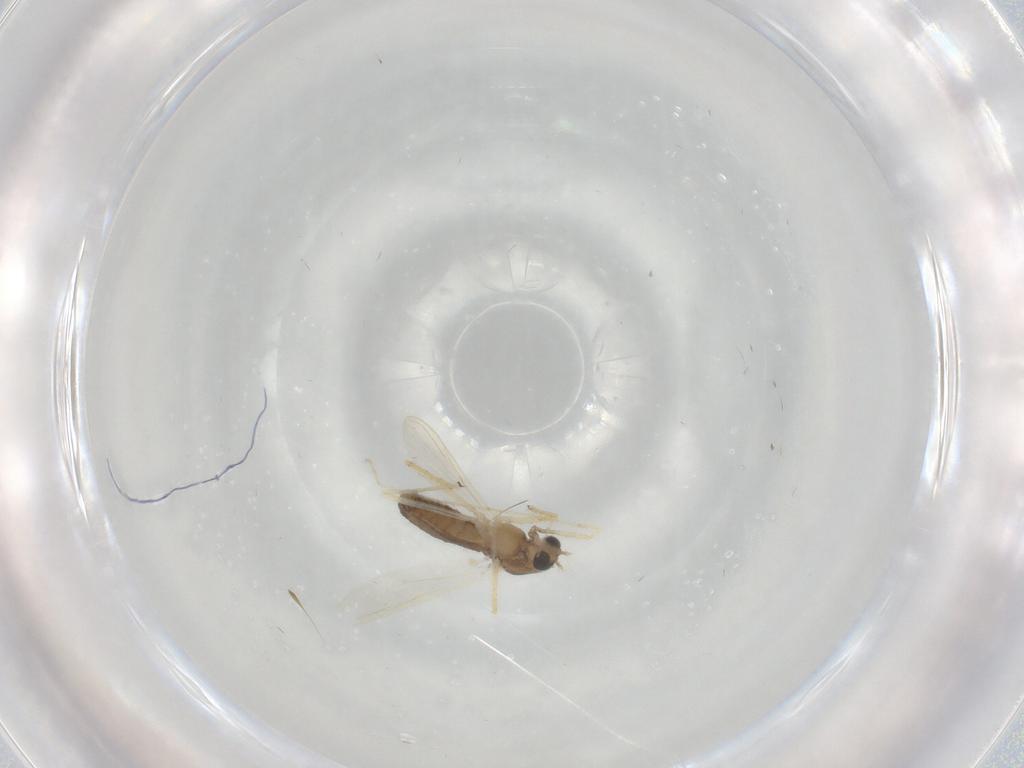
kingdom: Animalia
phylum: Arthropoda
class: Insecta
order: Diptera
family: Chironomidae
